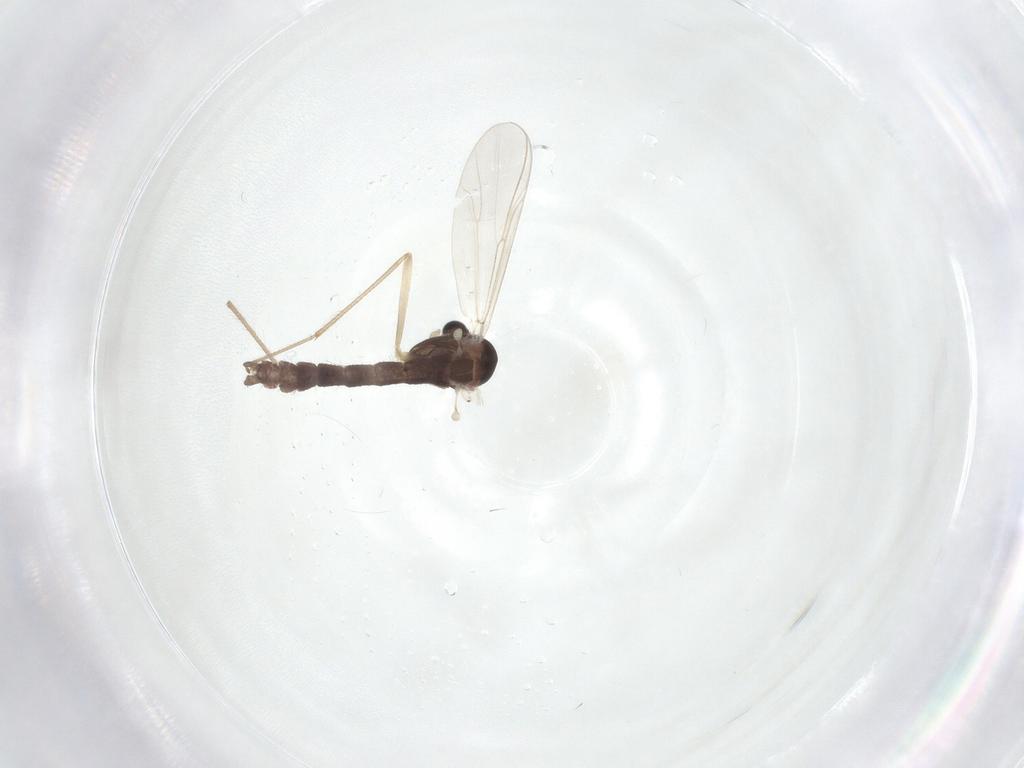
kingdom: Animalia
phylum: Arthropoda
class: Insecta
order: Diptera
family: Chironomidae
